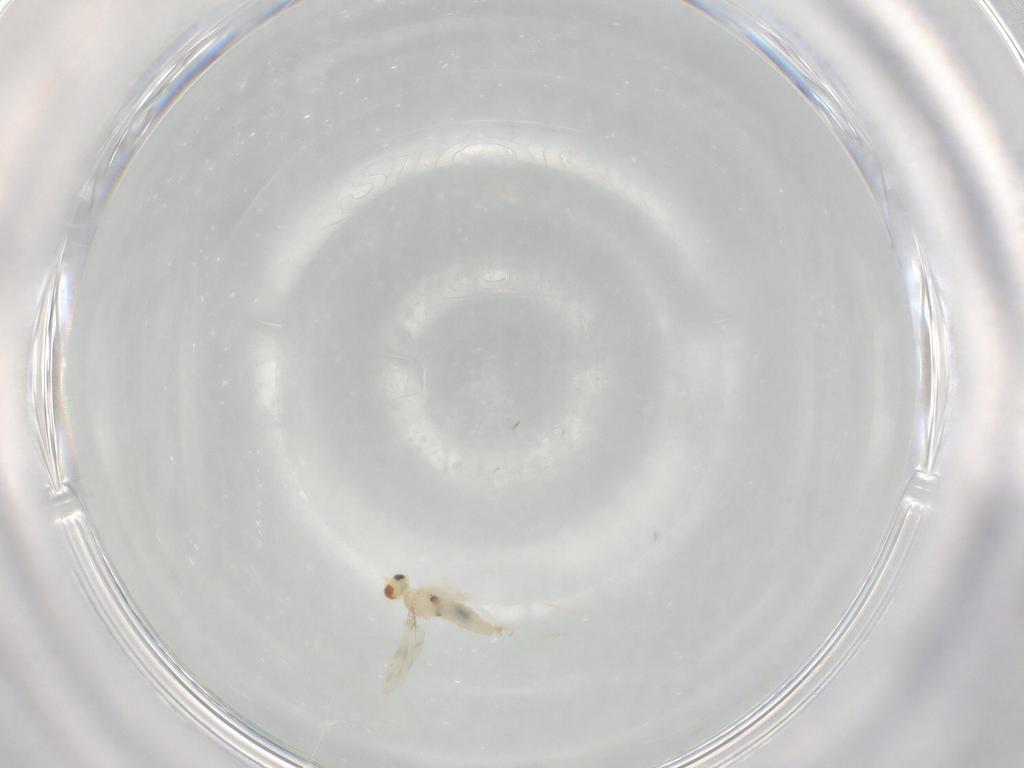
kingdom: Animalia
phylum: Arthropoda
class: Insecta
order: Diptera
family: Cecidomyiidae
